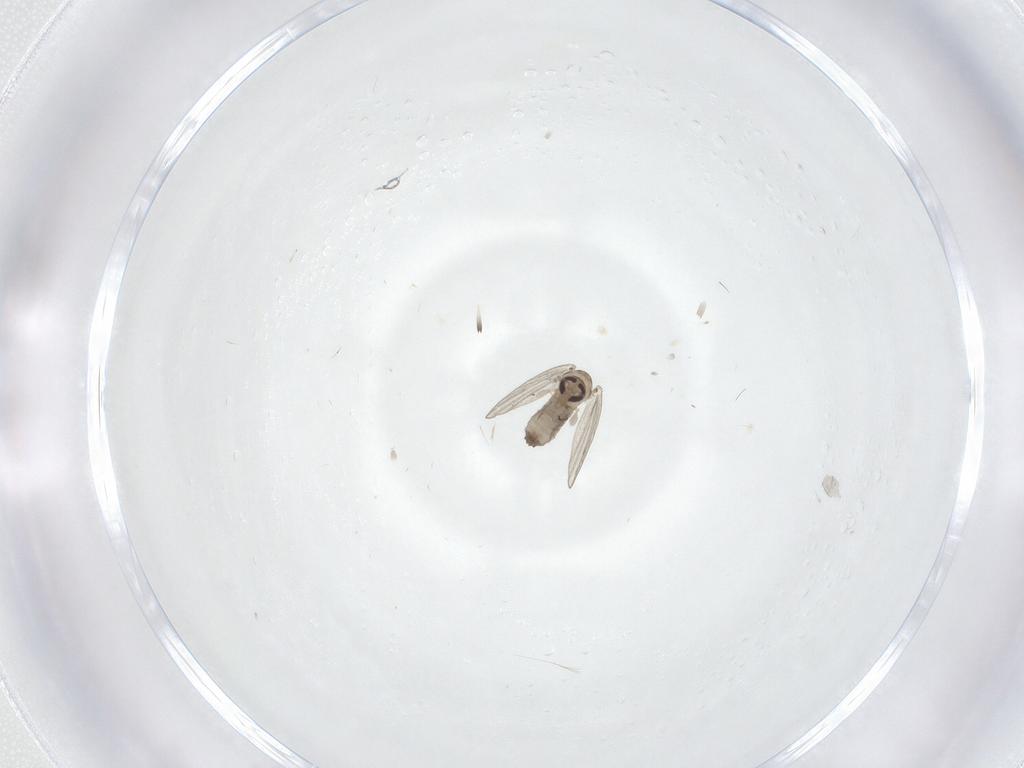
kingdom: Animalia
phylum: Arthropoda
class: Insecta
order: Diptera
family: Psychodidae
